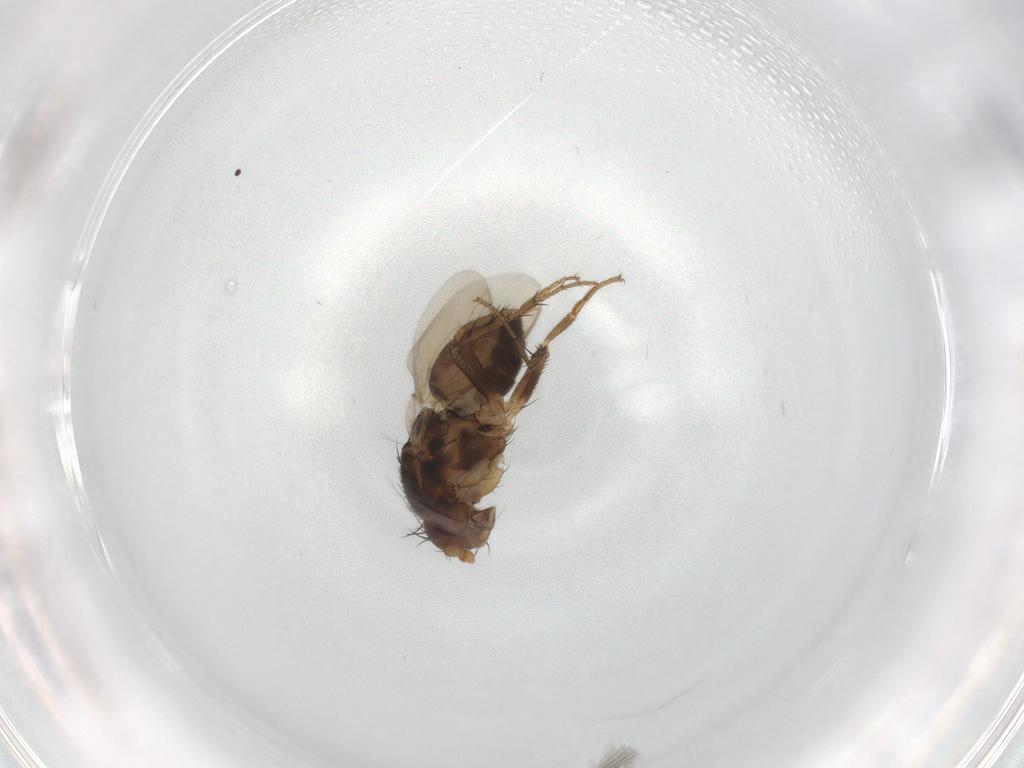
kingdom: Animalia
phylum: Arthropoda
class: Insecta
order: Diptera
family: Sphaeroceridae
